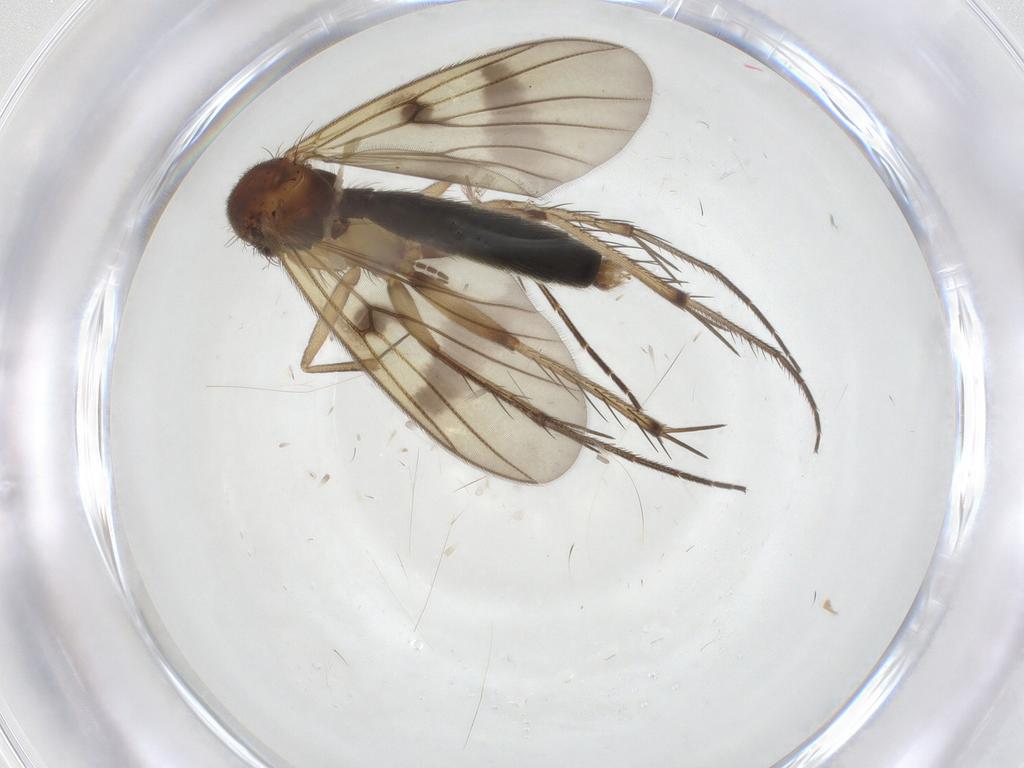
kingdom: Animalia
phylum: Arthropoda
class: Insecta
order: Diptera
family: Mycetophilidae
